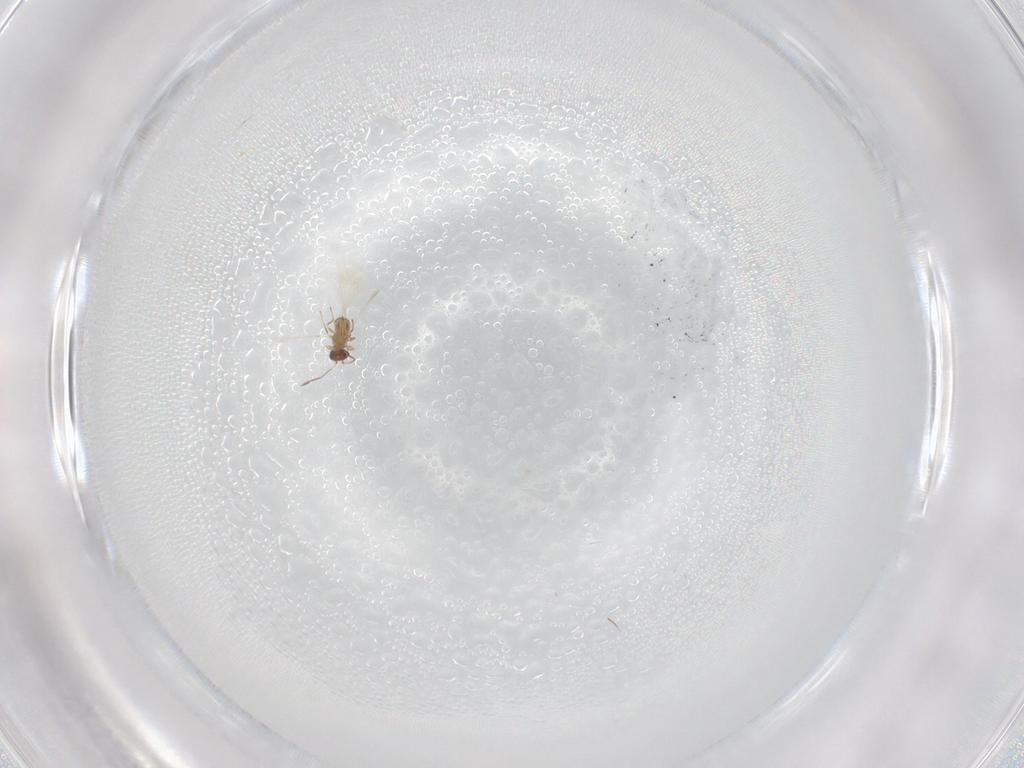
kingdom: Animalia
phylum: Arthropoda
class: Insecta
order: Hymenoptera
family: Mymaridae
